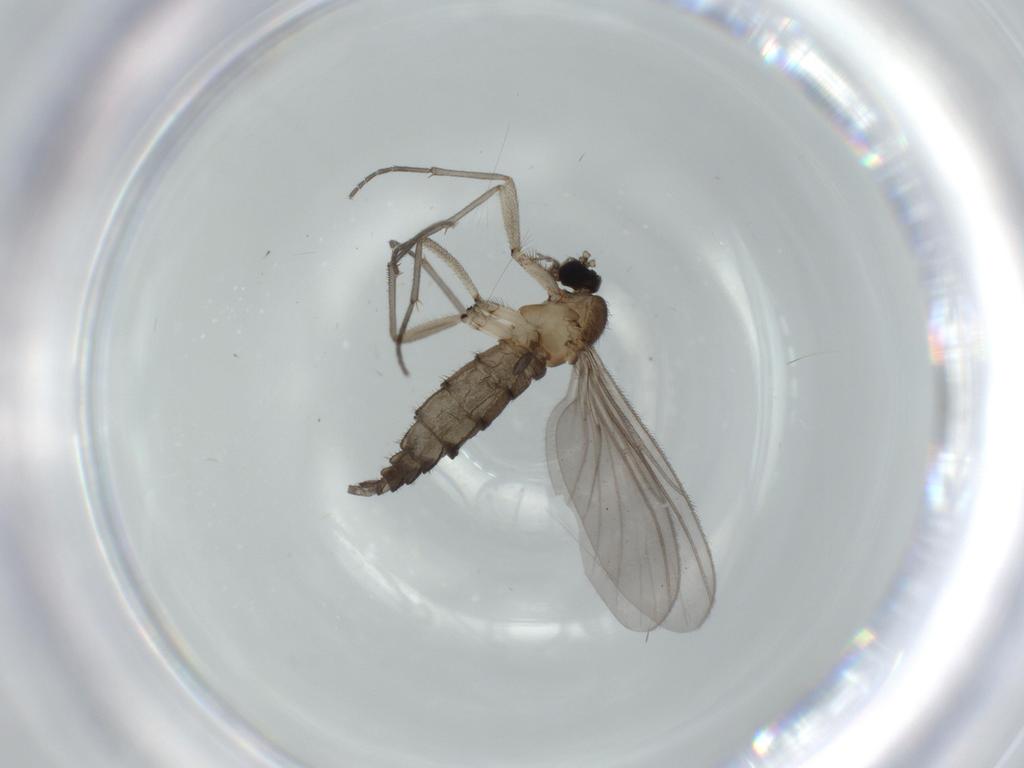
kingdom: Animalia
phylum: Arthropoda
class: Insecta
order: Diptera
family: Sciaridae
